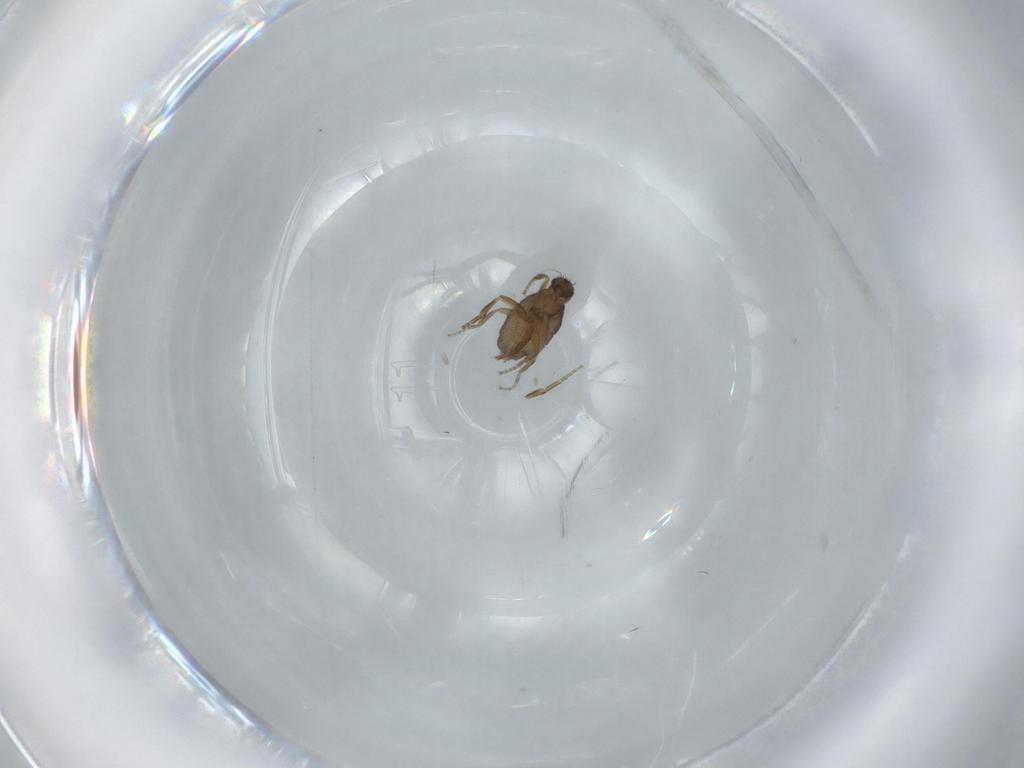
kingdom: Animalia
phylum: Arthropoda
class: Insecta
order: Diptera
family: Phoridae
